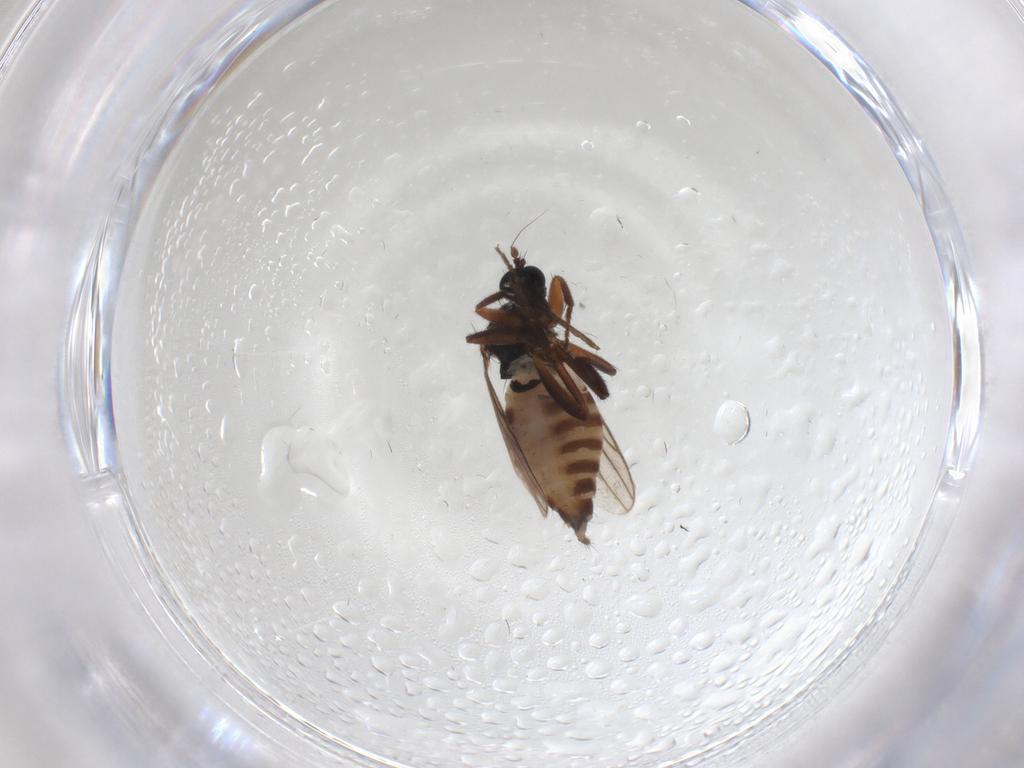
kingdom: Animalia
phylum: Arthropoda
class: Insecta
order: Diptera
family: Hybotidae
